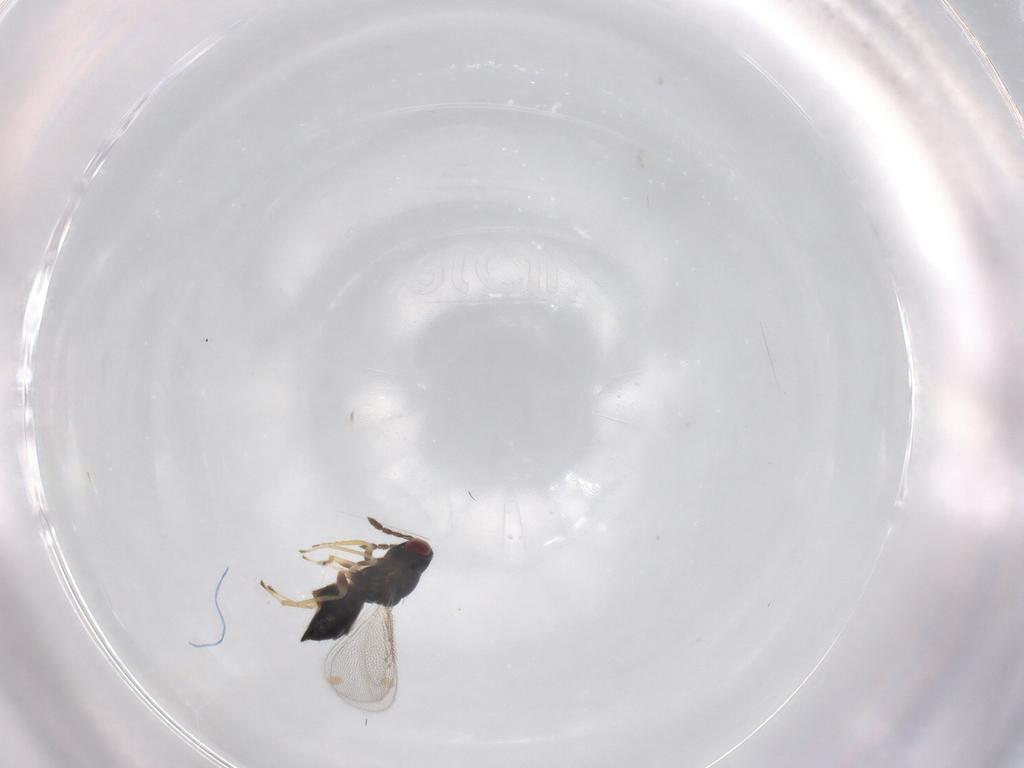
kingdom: Animalia
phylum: Arthropoda
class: Insecta
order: Hymenoptera
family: Eulophidae
